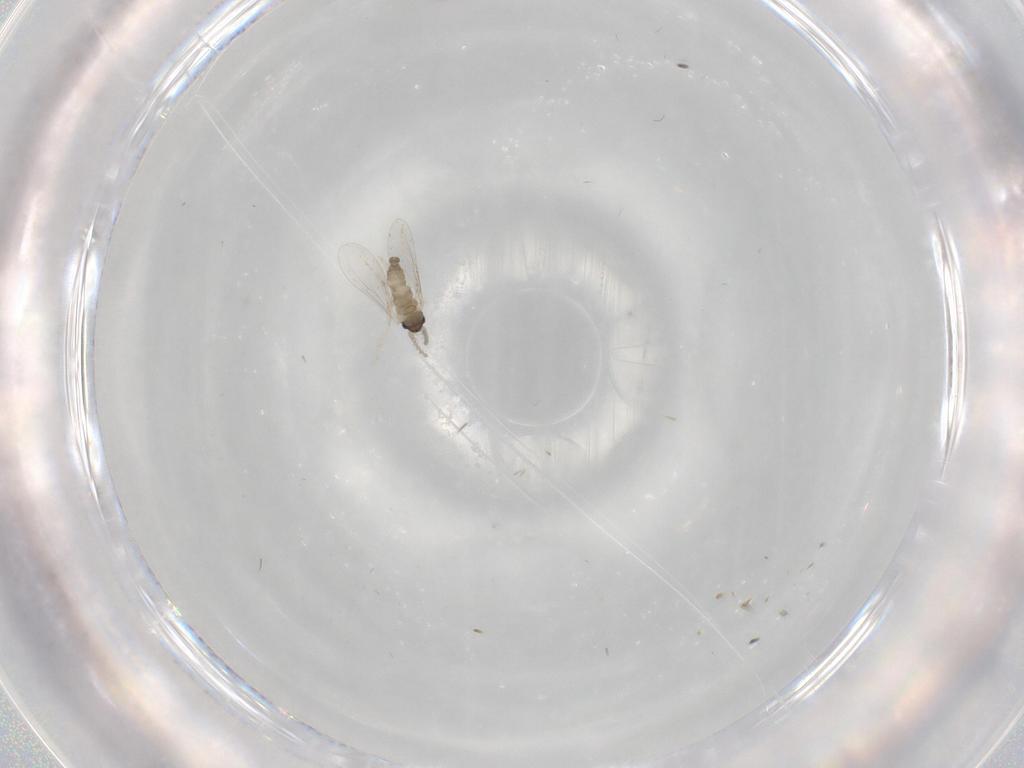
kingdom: Animalia
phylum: Arthropoda
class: Insecta
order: Diptera
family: Cecidomyiidae
